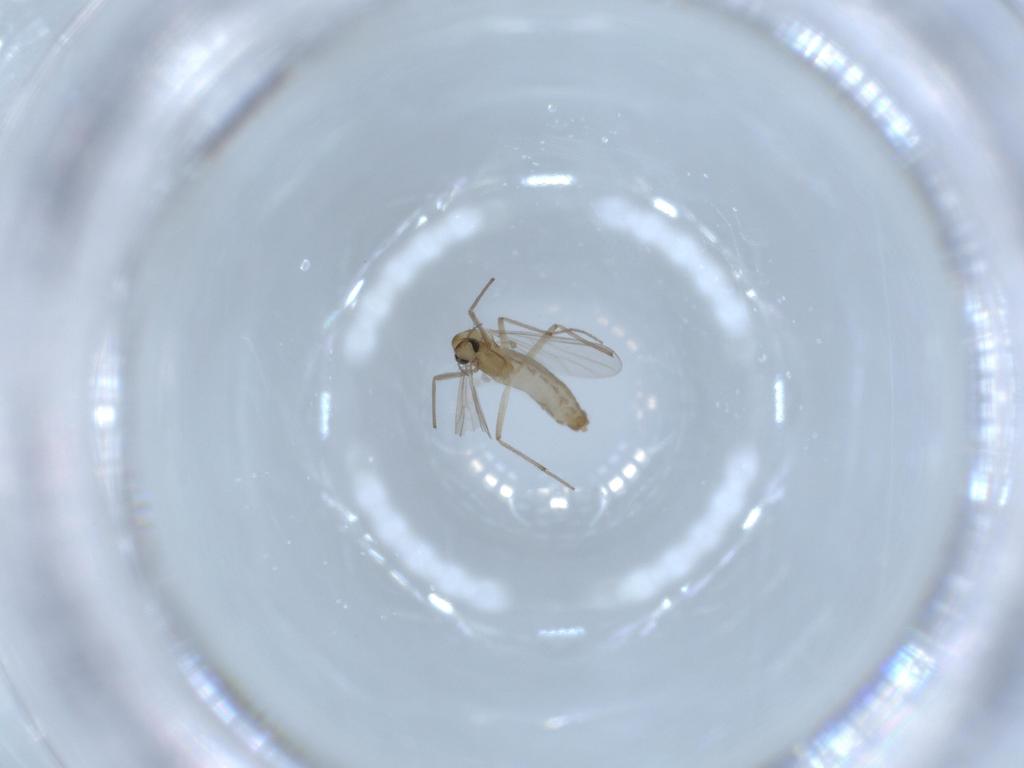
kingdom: Animalia
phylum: Arthropoda
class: Insecta
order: Diptera
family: Chironomidae
